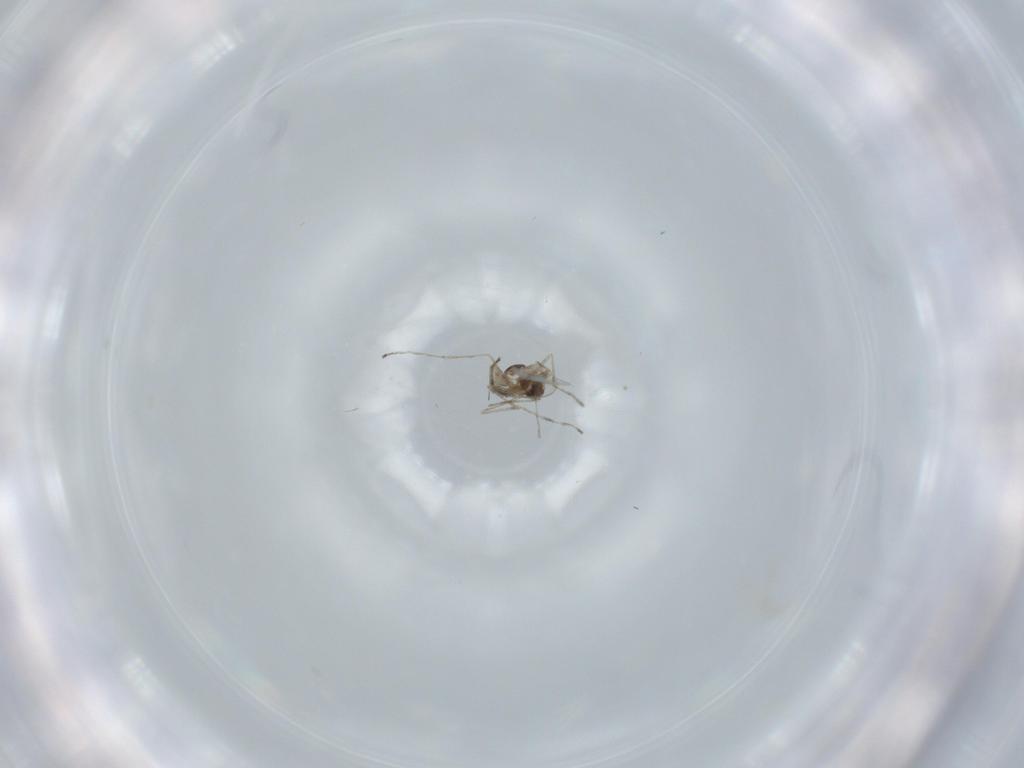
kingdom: Animalia
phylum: Arthropoda
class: Insecta
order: Diptera
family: Cecidomyiidae
